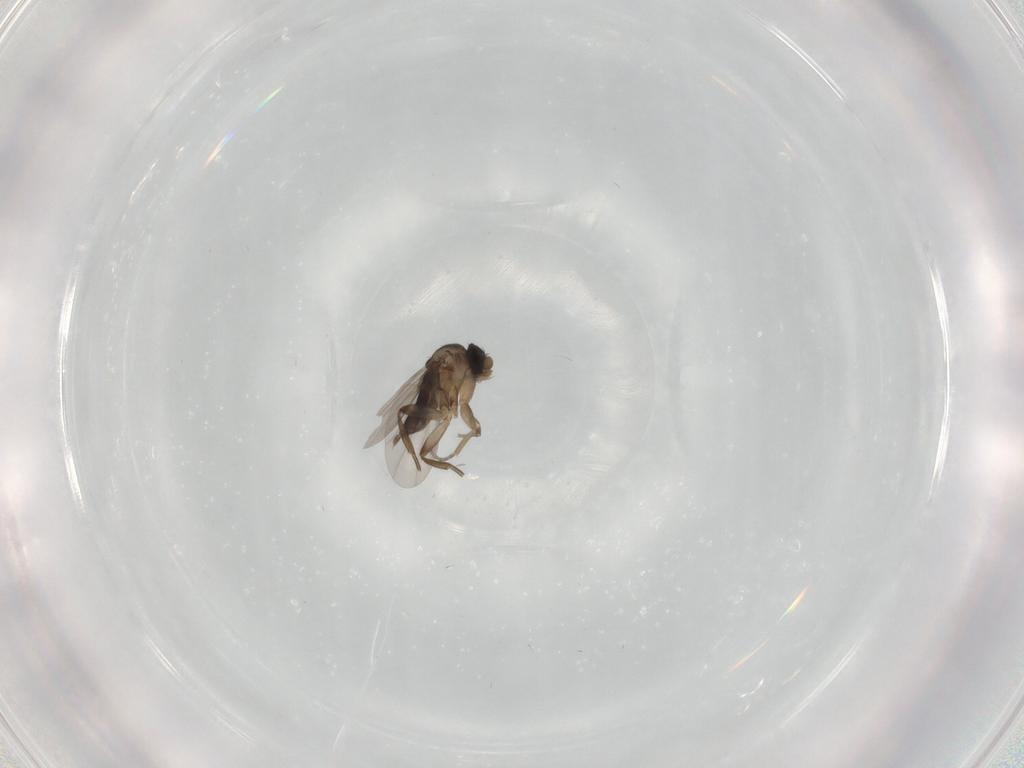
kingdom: Animalia
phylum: Arthropoda
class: Insecta
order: Diptera
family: Phoridae
